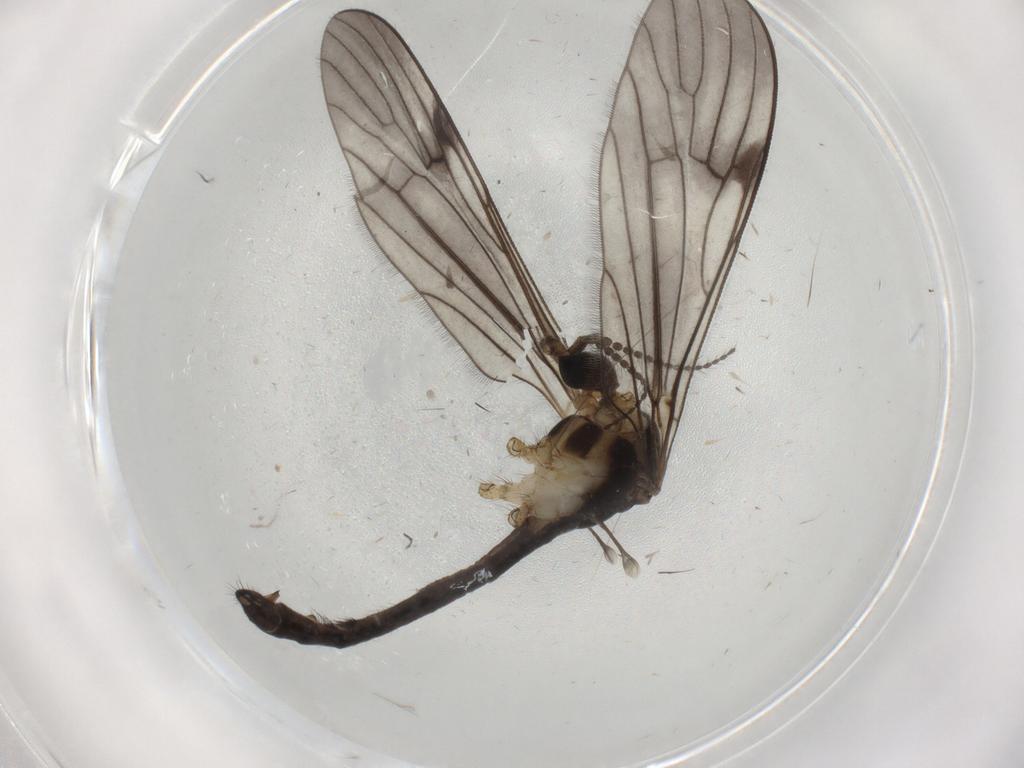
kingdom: Animalia
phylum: Arthropoda
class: Insecta
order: Diptera
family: Limoniidae
